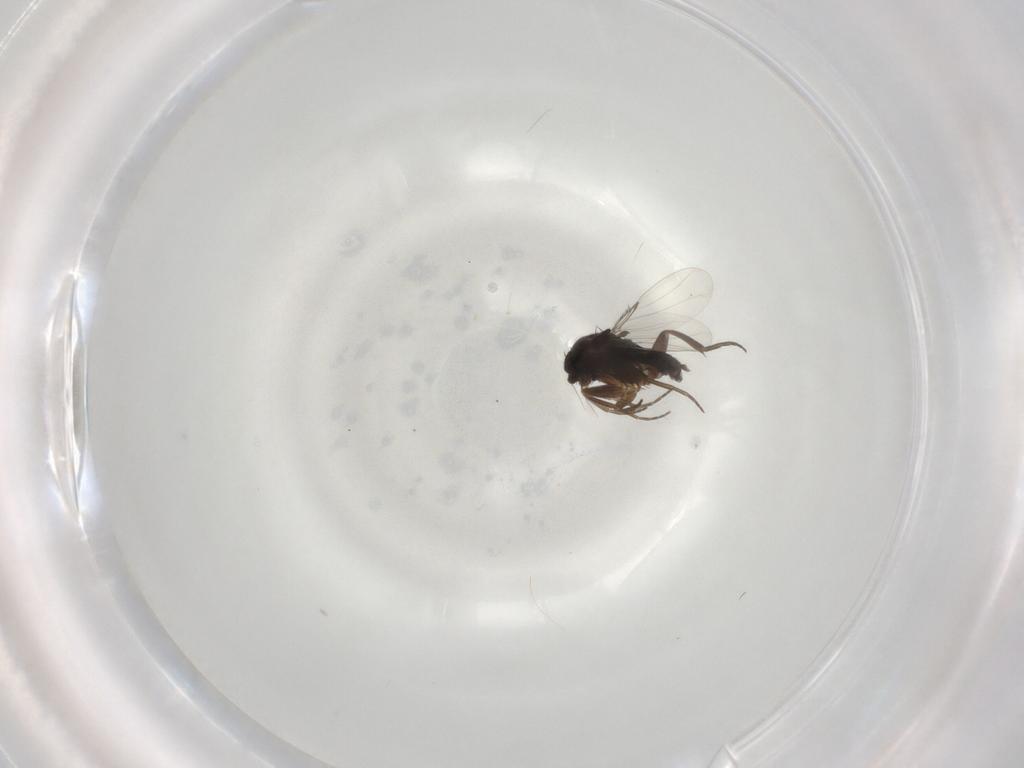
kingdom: Animalia
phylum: Arthropoda
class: Insecta
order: Diptera
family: Phoridae
